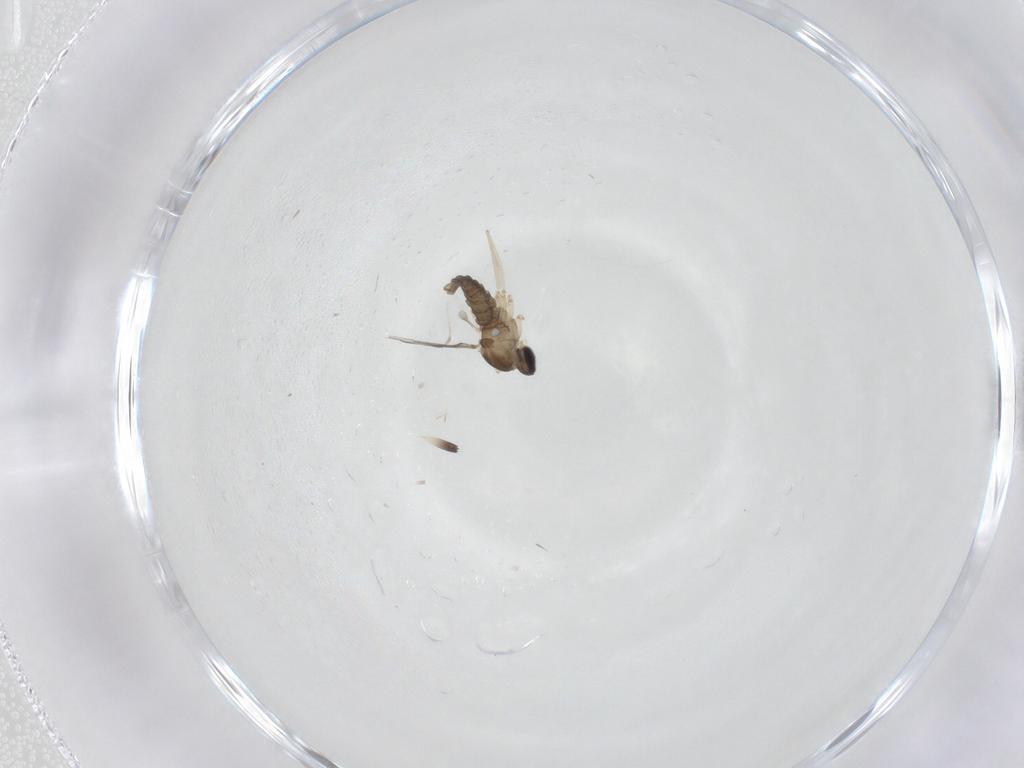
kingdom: Animalia
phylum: Arthropoda
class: Insecta
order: Diptera
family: Cecidomyiidae
